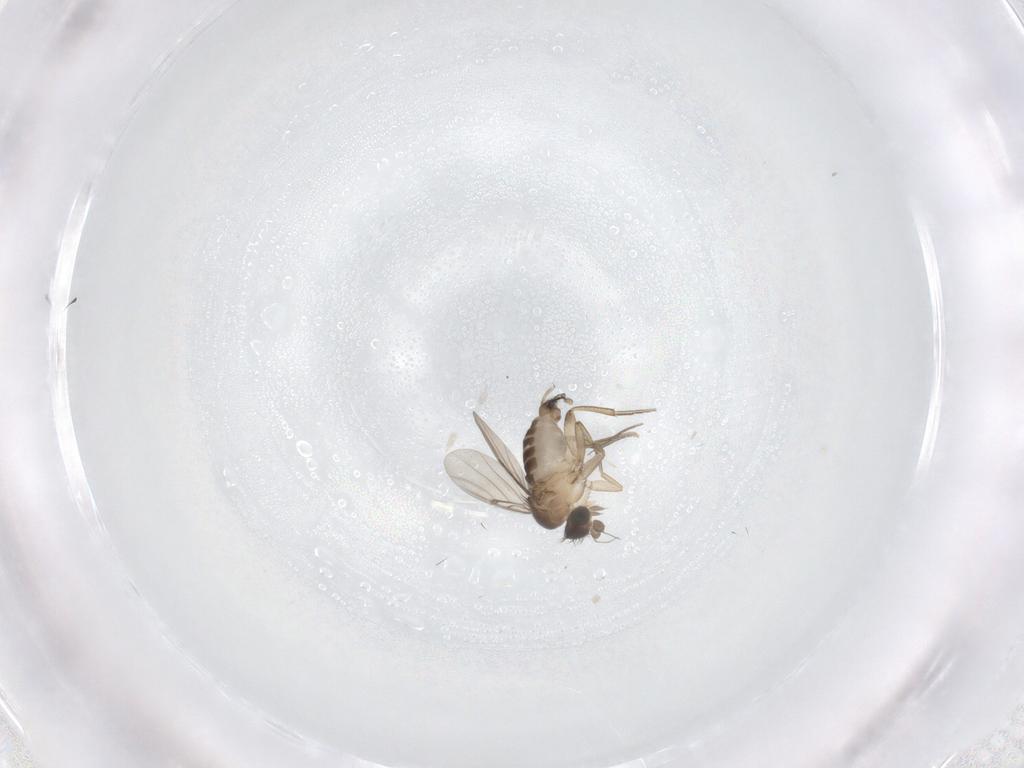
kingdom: Animalia
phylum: Arthropoda
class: Insecta
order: Diptera
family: Phoridae
